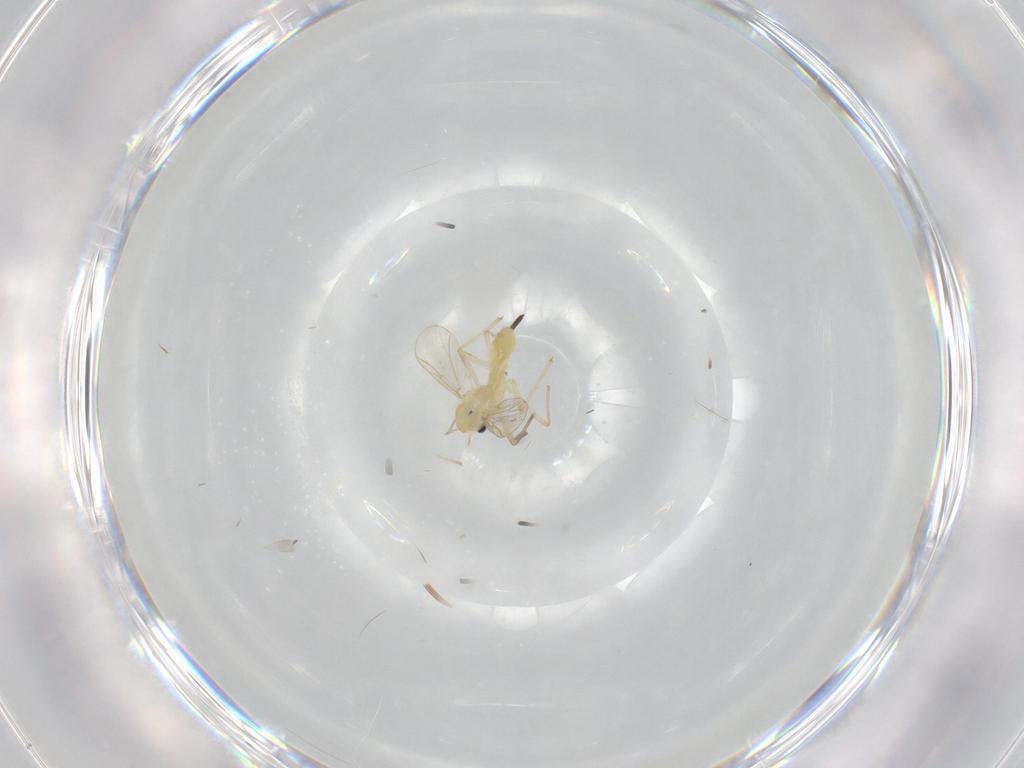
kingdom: Animalia
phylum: Arthropoda
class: Insecta
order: Diptera
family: Chironomidae
